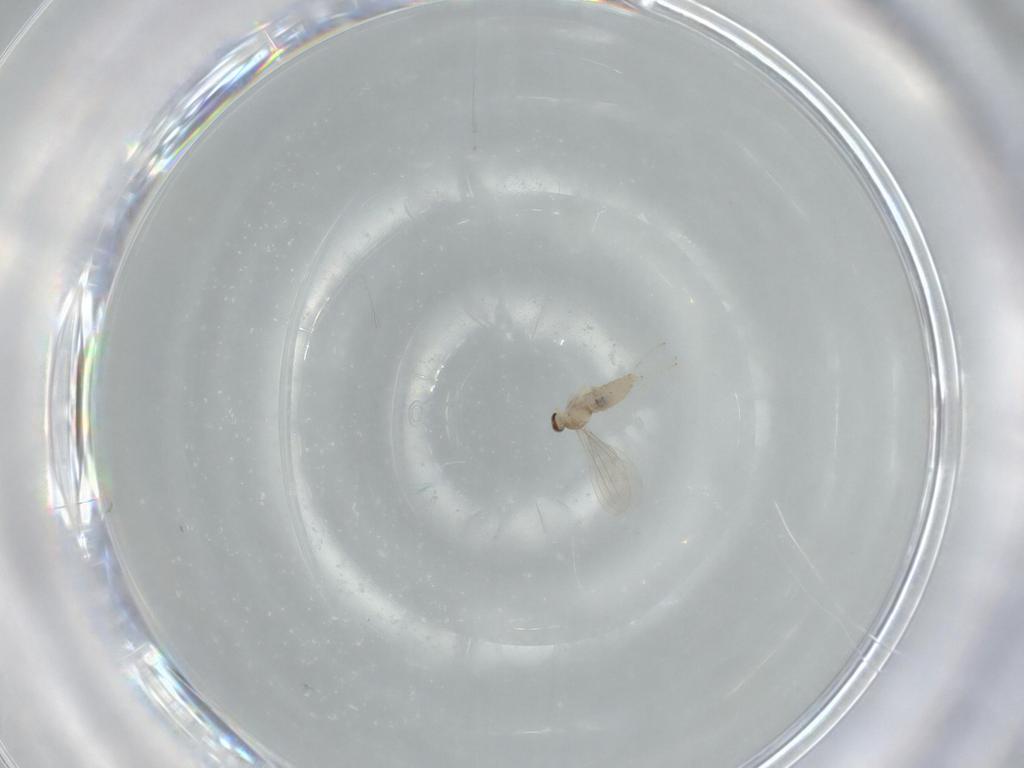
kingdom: Animalia
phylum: Arthropoda
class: Insecta
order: Diptera
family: Cecidomyiidae
